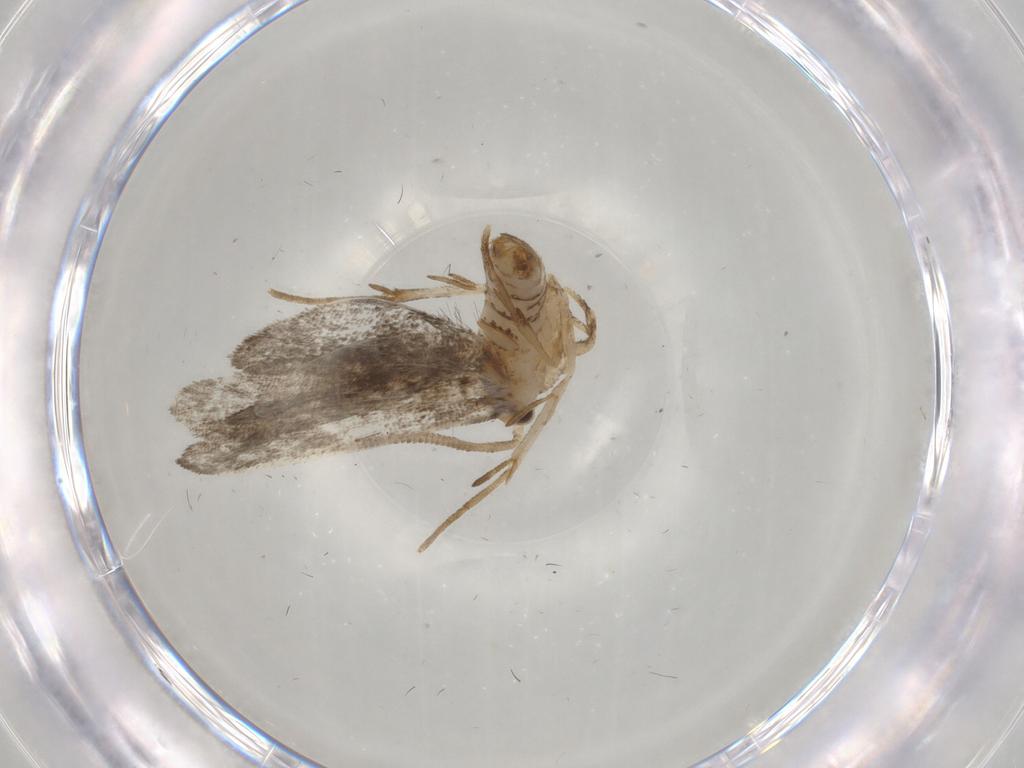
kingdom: Animalia
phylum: Arthropoda
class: Insecta
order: Lepidoptera
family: Dryadaulidae
